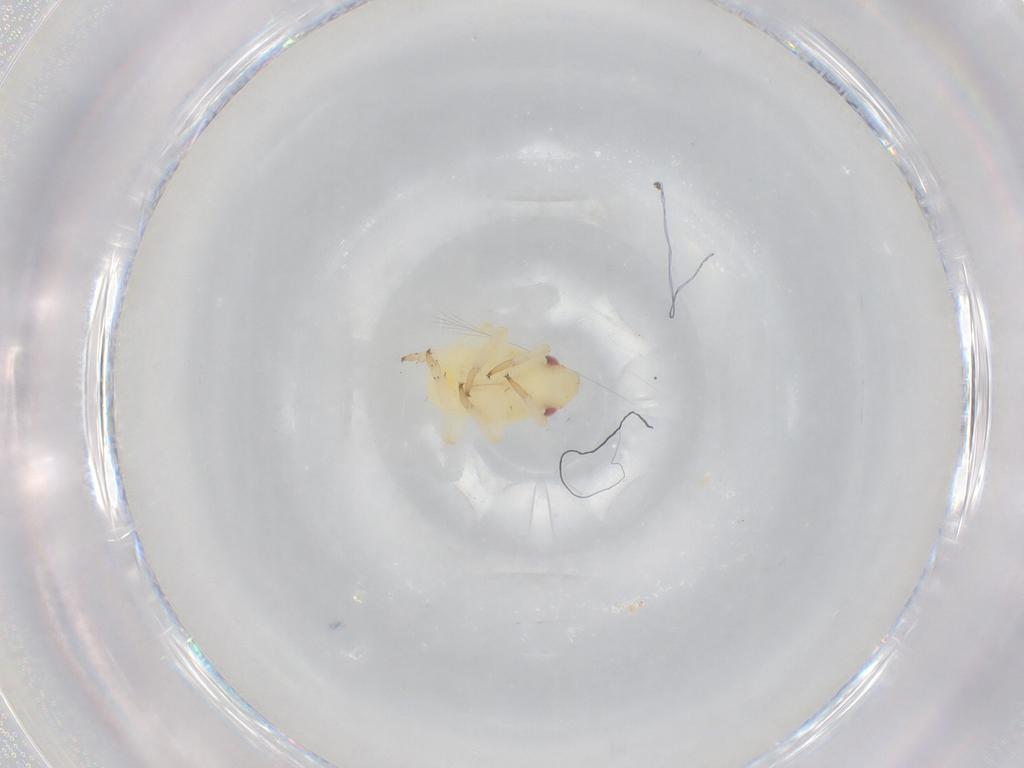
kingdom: Animalia
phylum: Arthropoda
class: Insecta
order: Hemiptera
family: Caliscelidae
